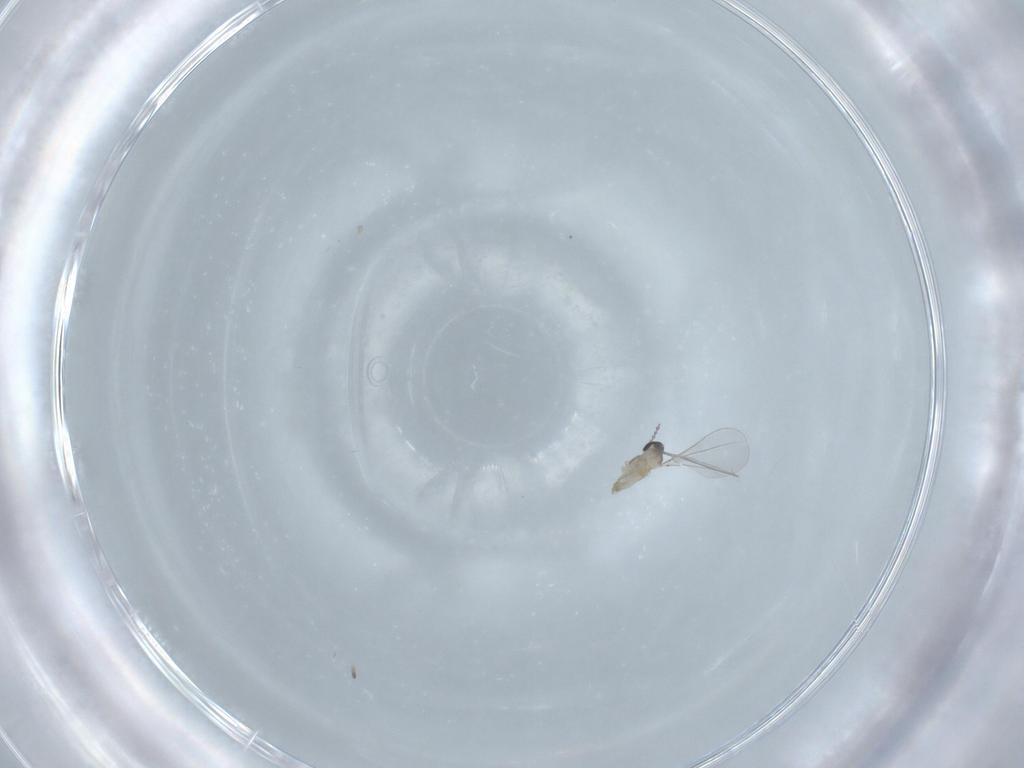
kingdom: Animalia
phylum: Arthropoda
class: Insecta
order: Diptera
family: Cecidomyiidae
